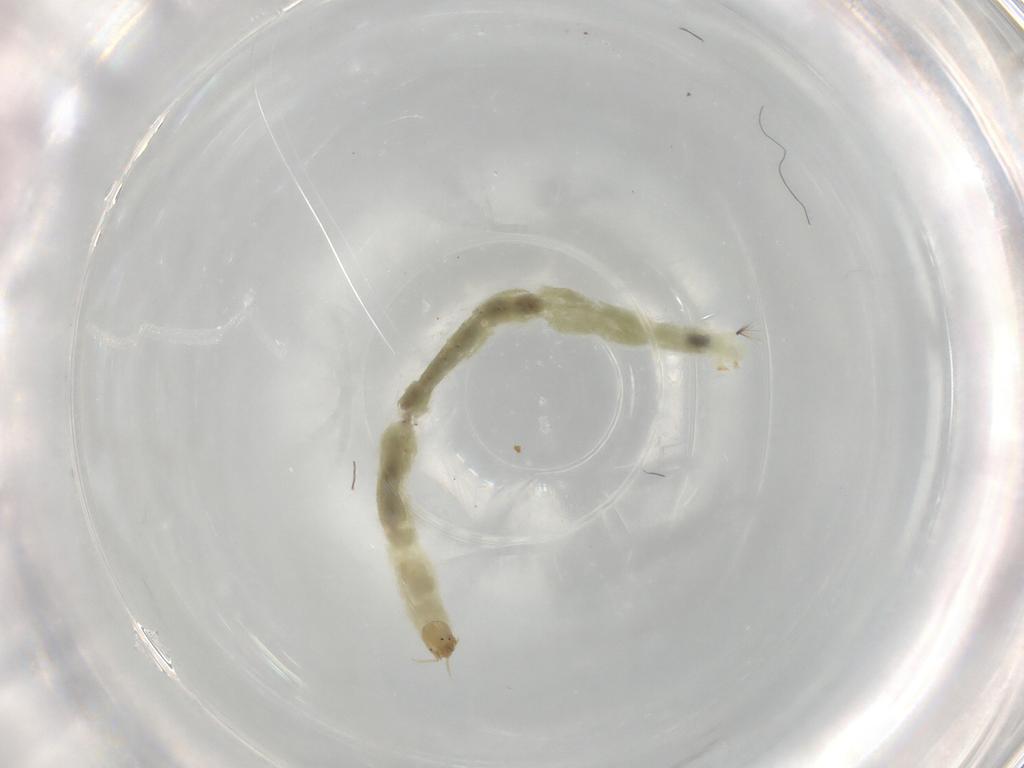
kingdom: Animalia
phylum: Arthropoda
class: Insecta
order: Diptera
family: Chironomidae
